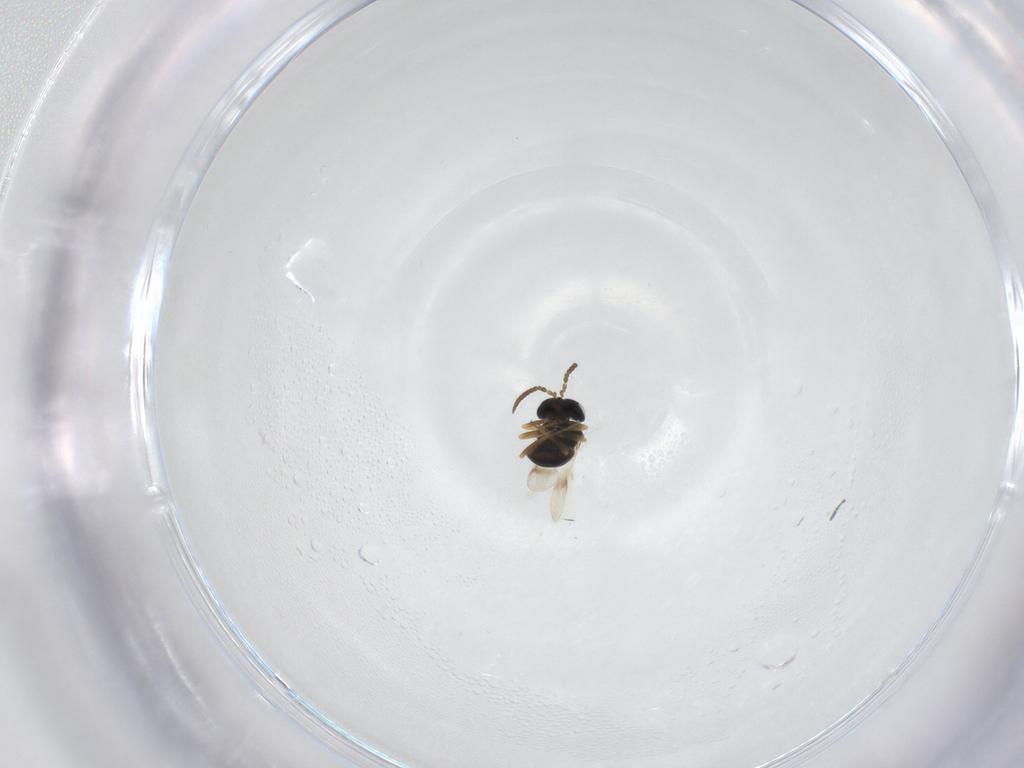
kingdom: Animalia
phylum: Arthropoda
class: Insecta
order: Hymenoptera
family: Scelionidae
